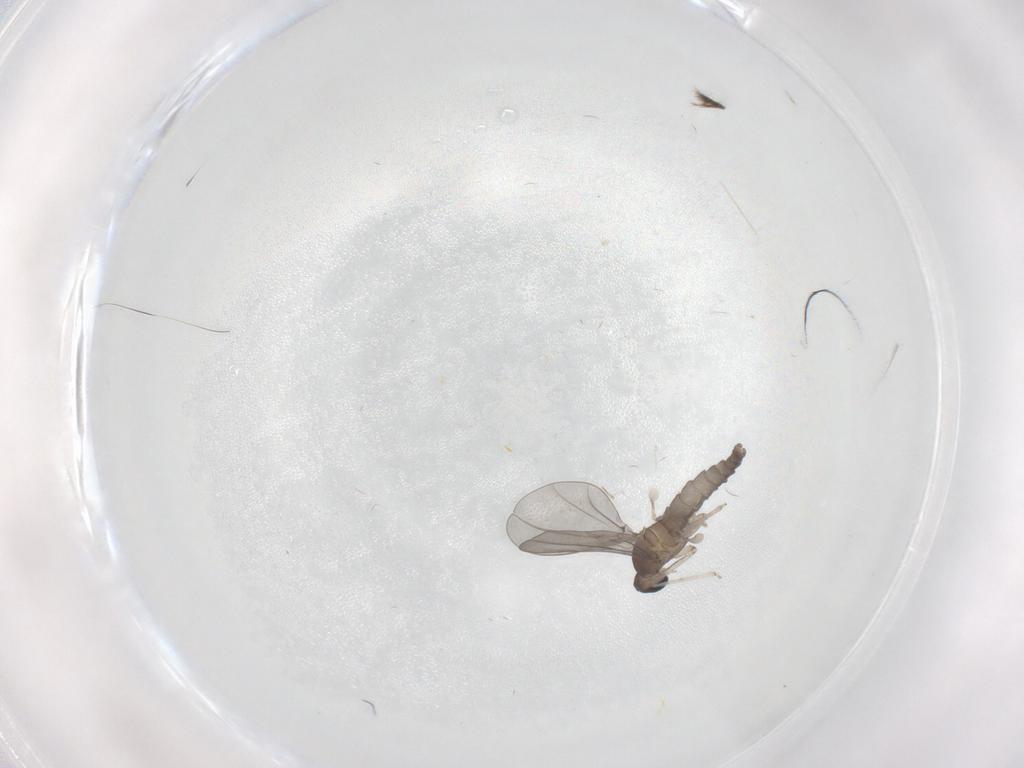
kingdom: Animalia
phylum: Arthropoda
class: Insecta
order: Diptera
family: Cecidomyiidae
